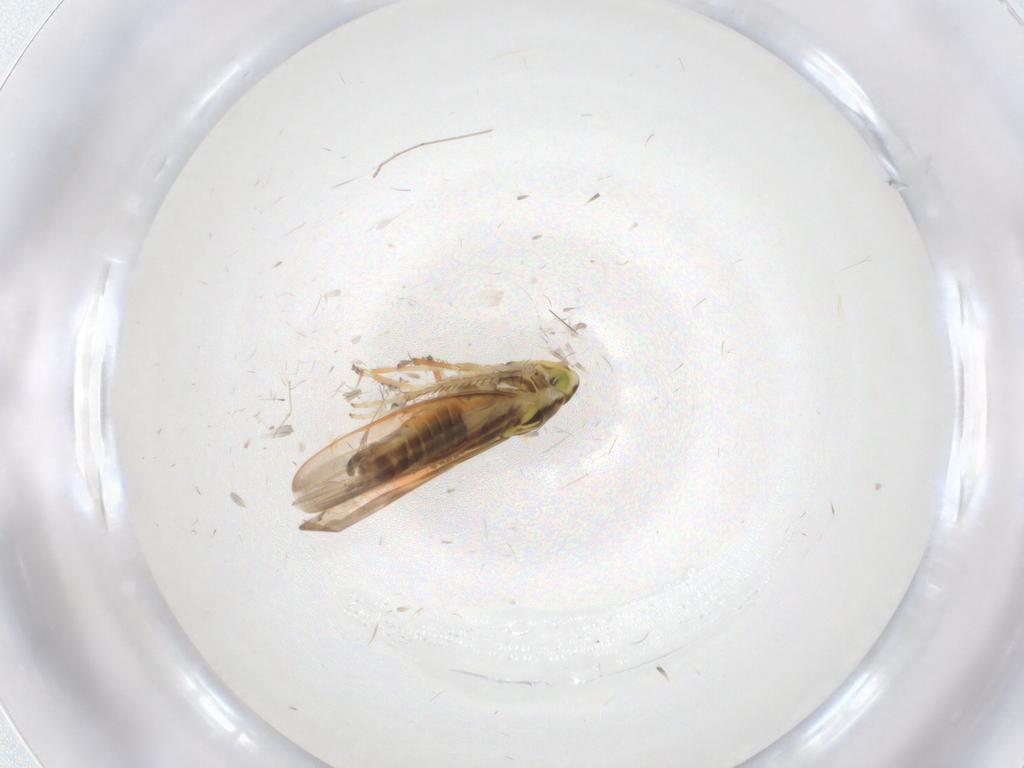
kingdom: Animalia
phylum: Arthropoda
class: Insecta
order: Hemiptera
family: Cicadellidae
